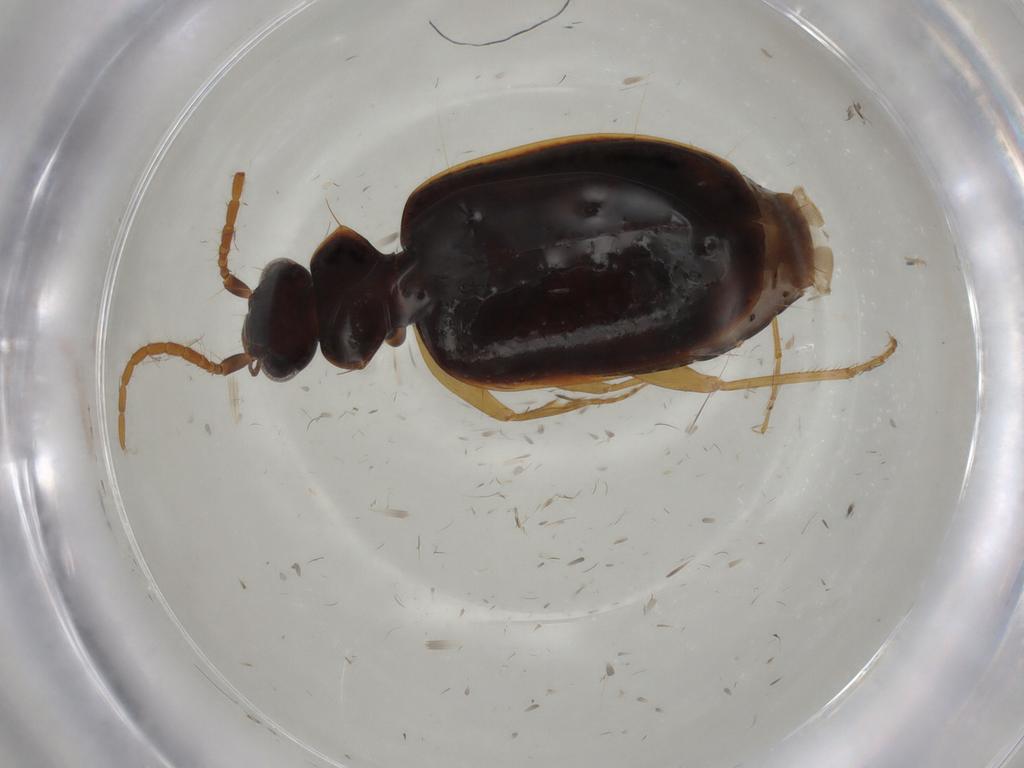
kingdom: Animalia
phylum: Arthropoda
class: Insecta
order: Coleoptera
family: Carabidae
